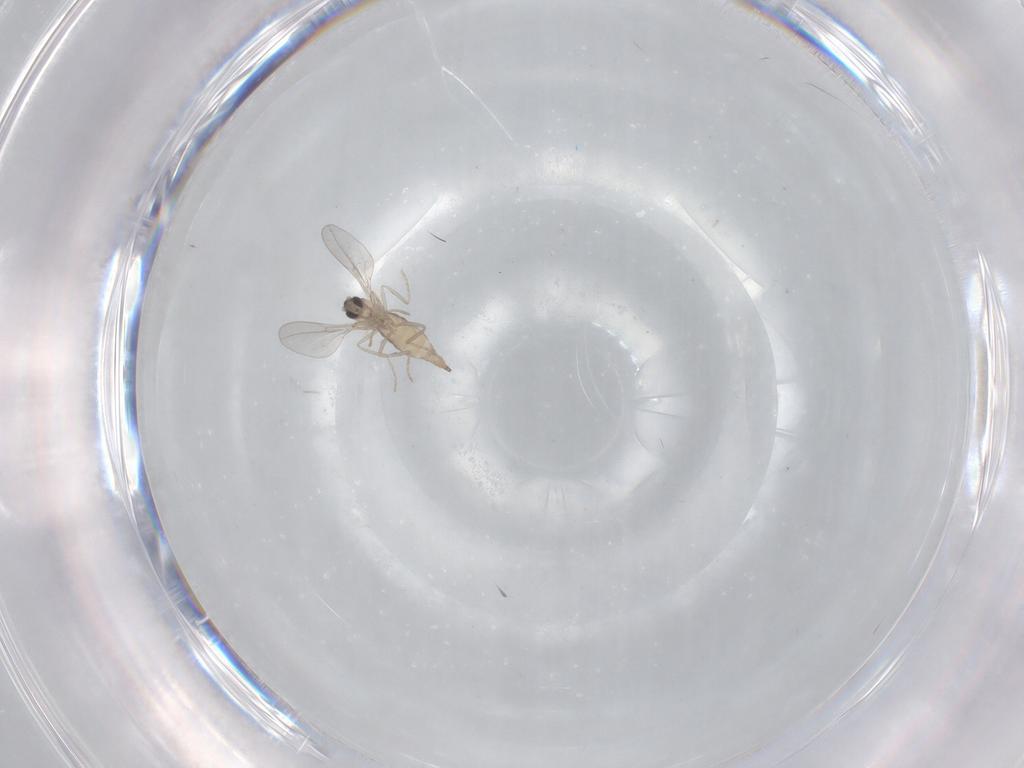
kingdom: Animalia
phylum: Arthropoda
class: Insecta
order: Diptera
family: Cecidomyiidae
